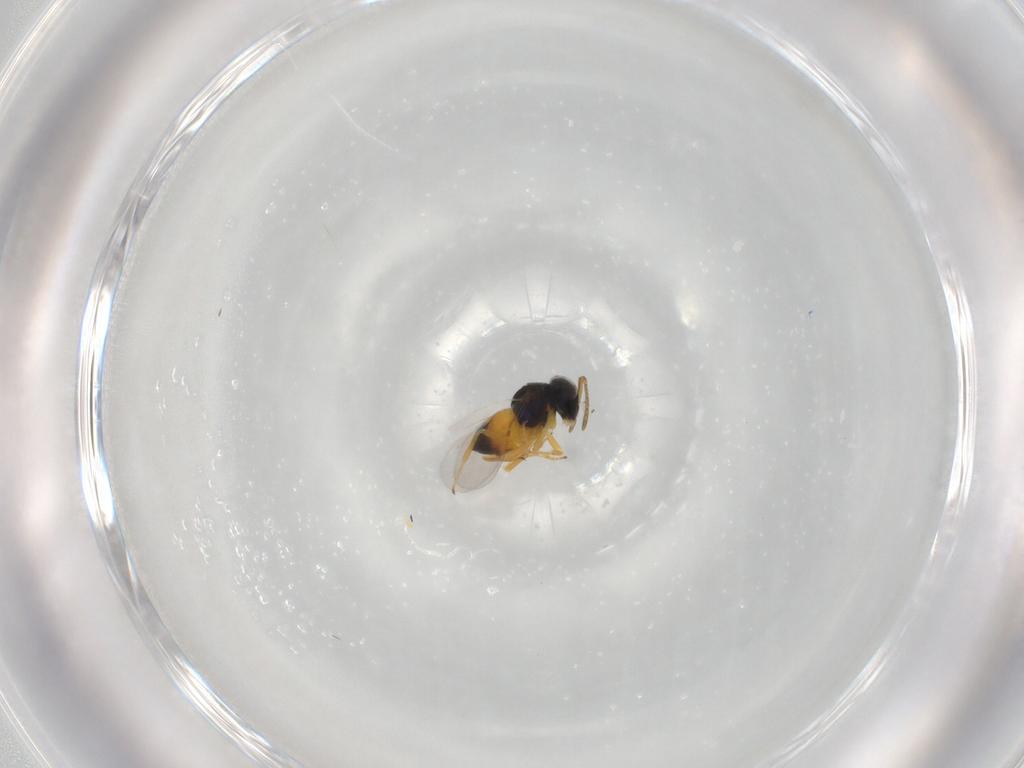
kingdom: Animalia
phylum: Arthropoda
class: Insecta
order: Hymenoptera
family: Encyrtidae
